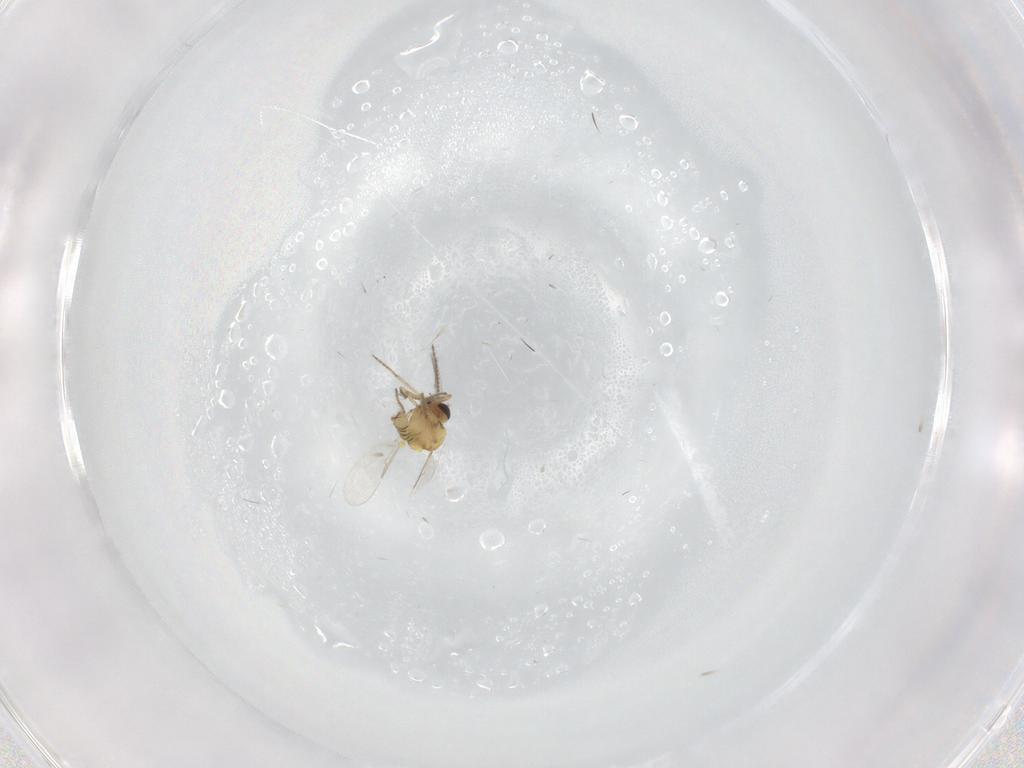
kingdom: Animalia
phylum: Arthropoda
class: Insecta
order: Diptera
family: Ceratopogonidae
